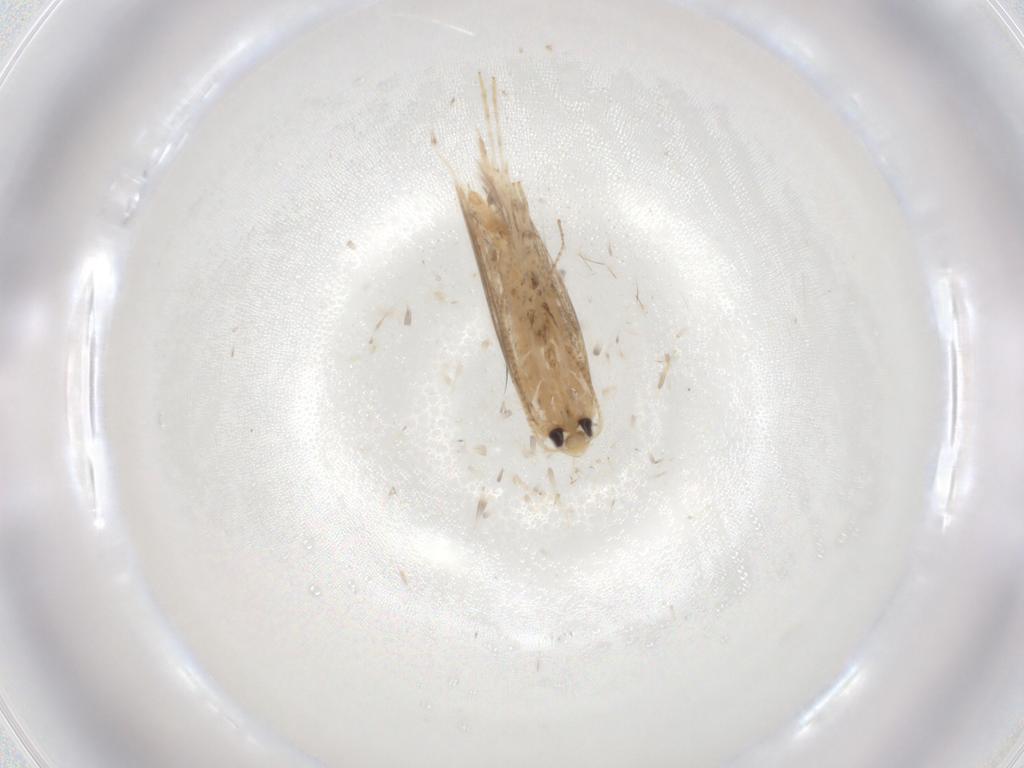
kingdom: Animalia
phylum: Arthropoda
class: Insecta
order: Lepidoptera
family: Gracillariidae
